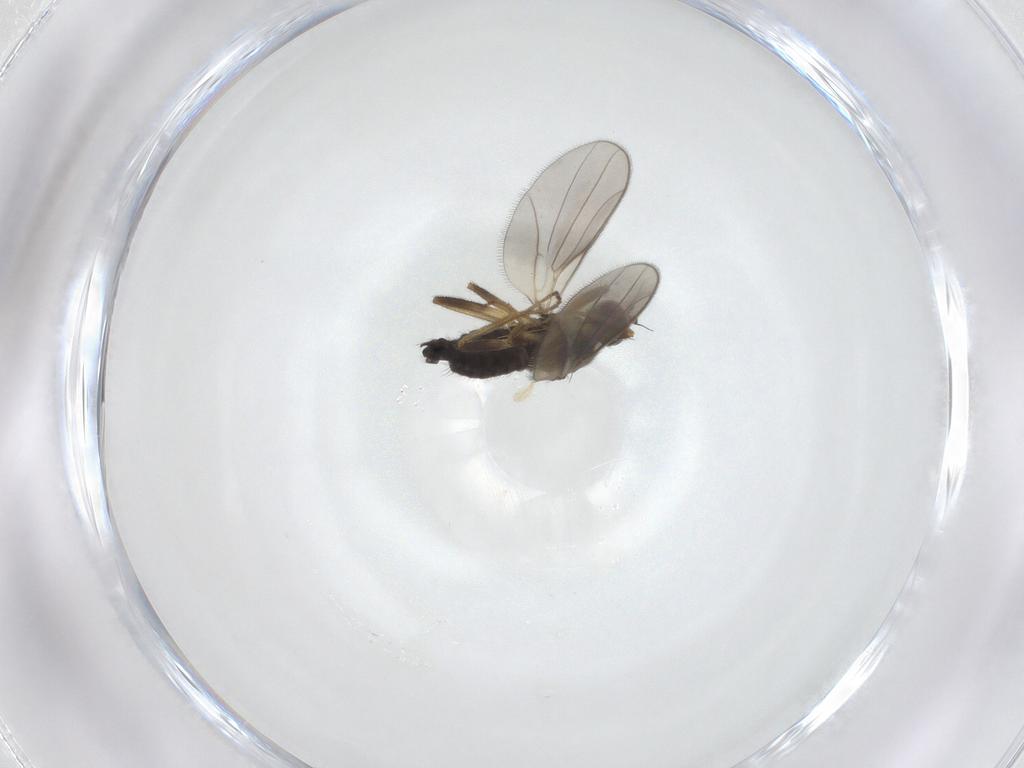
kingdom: Animalia
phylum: Arthropoda
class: Insecta
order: Diptera
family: Hybotidae
